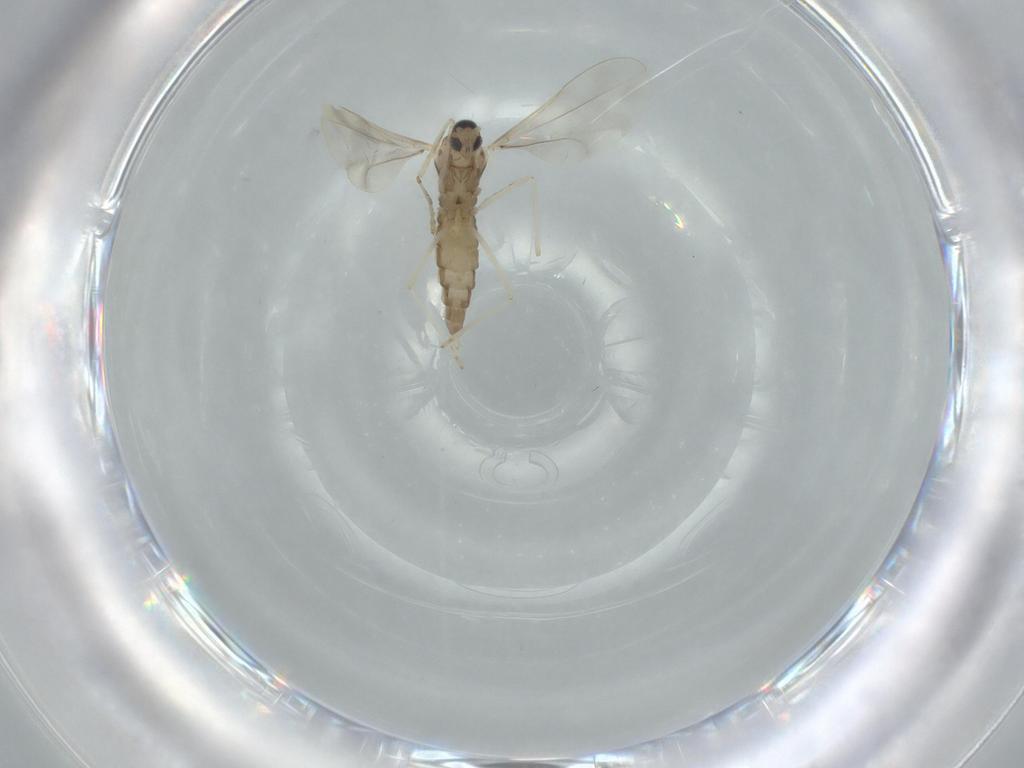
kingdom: Animalia
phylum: Arthropoda
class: Insecta
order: Diptera
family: Cecidomyiidae
